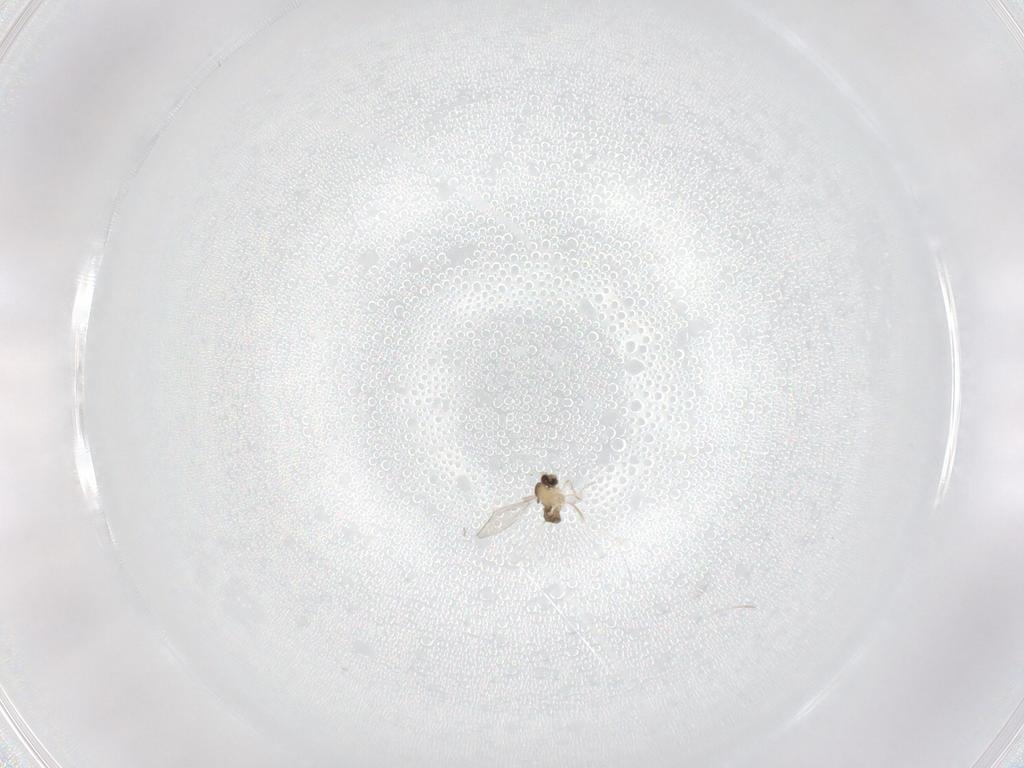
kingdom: Animalia
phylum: Arthropoda
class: Insecta
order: Diptera
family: Cecidomyiidae
